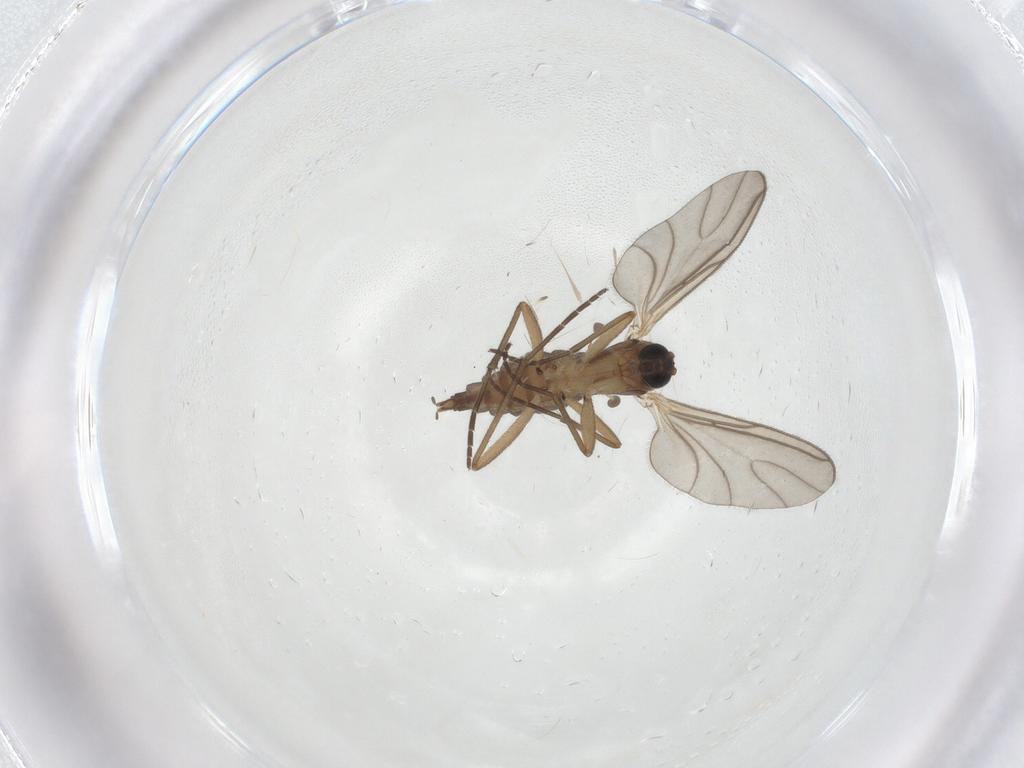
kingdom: Animalia
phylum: Arthropoda
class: Insecta
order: Diptera
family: Sciaridae
